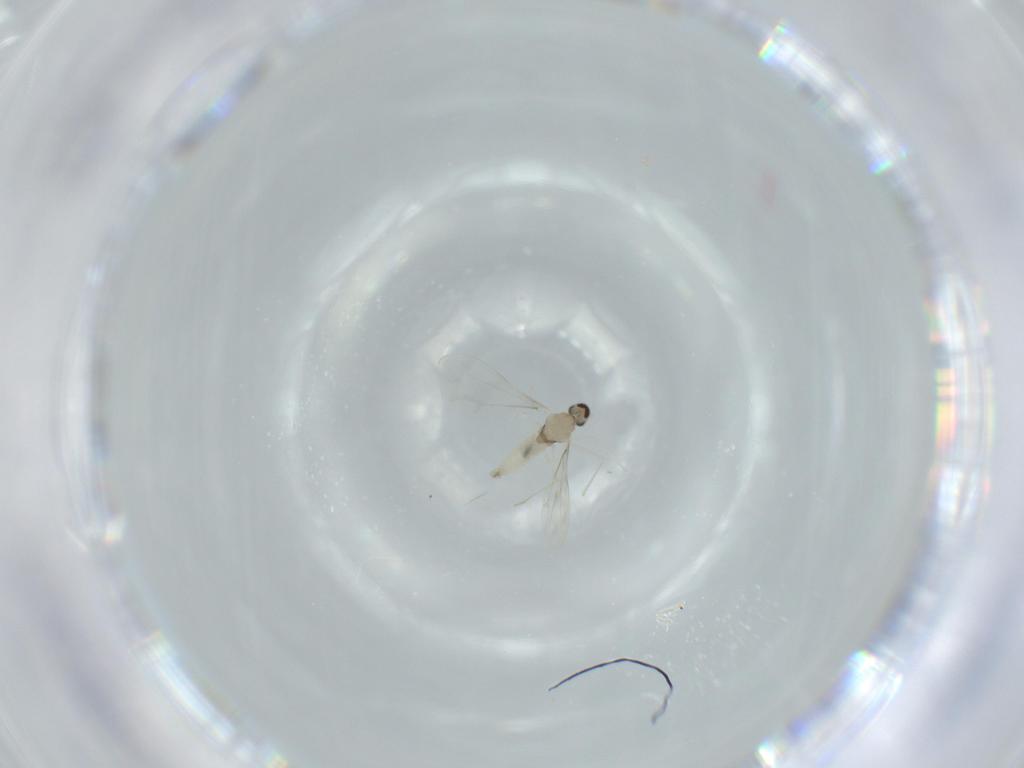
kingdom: Animalia
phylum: Arthropoda
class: Insecta
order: Diptera
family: Cecidomyiidae
